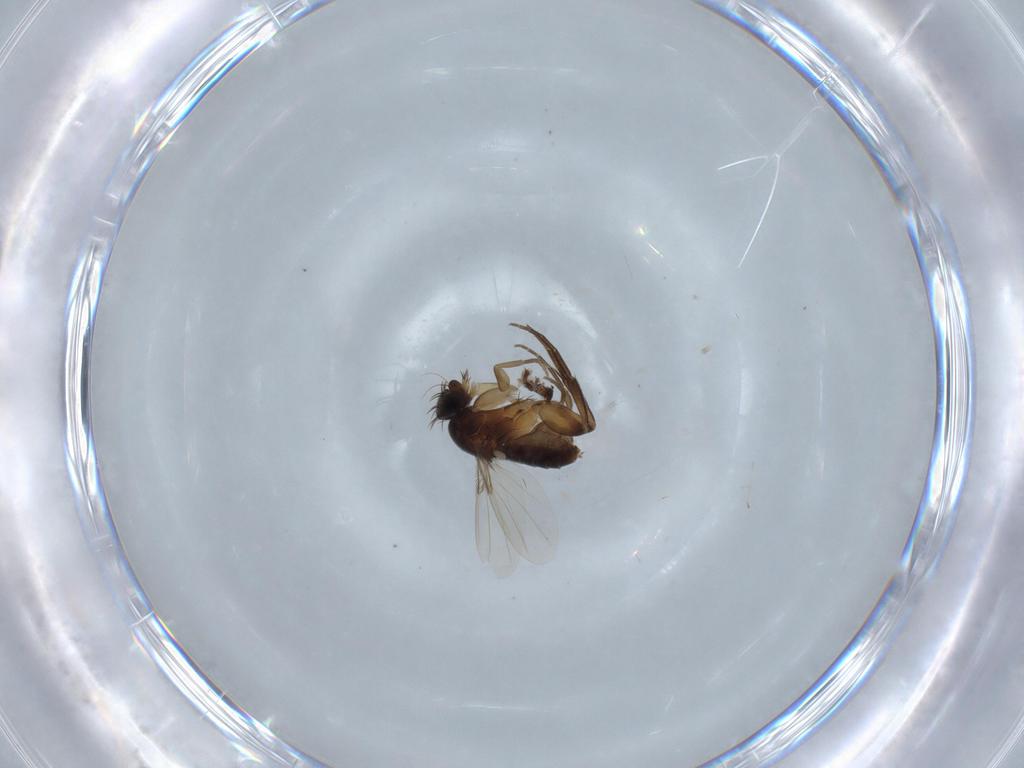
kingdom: Animalia
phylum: Arthropoda
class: Insecta
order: Diptera
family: Phoridae
